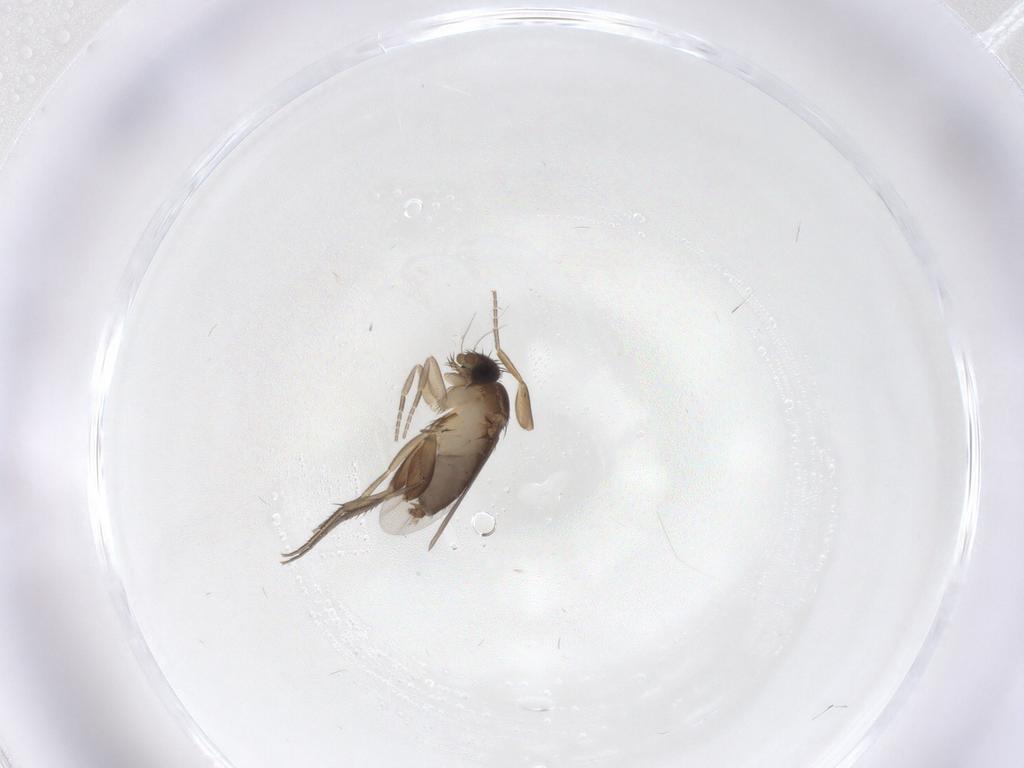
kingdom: Animalia
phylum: Arthropoda
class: Insecta
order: Diptera
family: Phoridae
